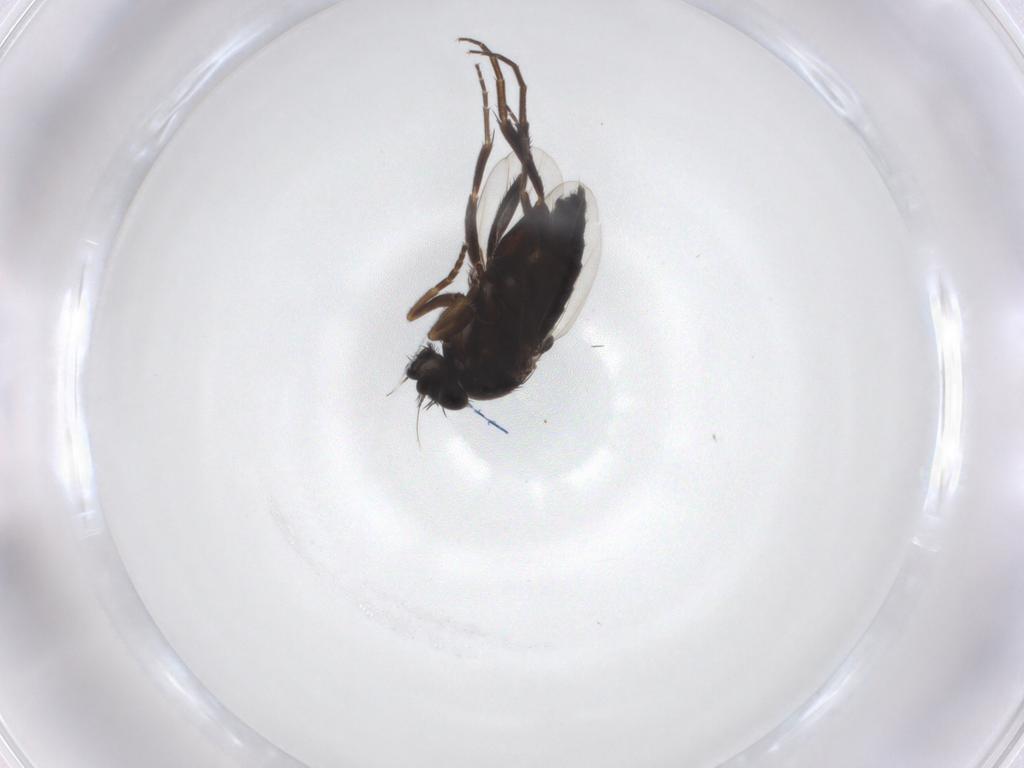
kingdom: Animalia
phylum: Arthropoda
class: Insecta
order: Diptera
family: Phoridae
